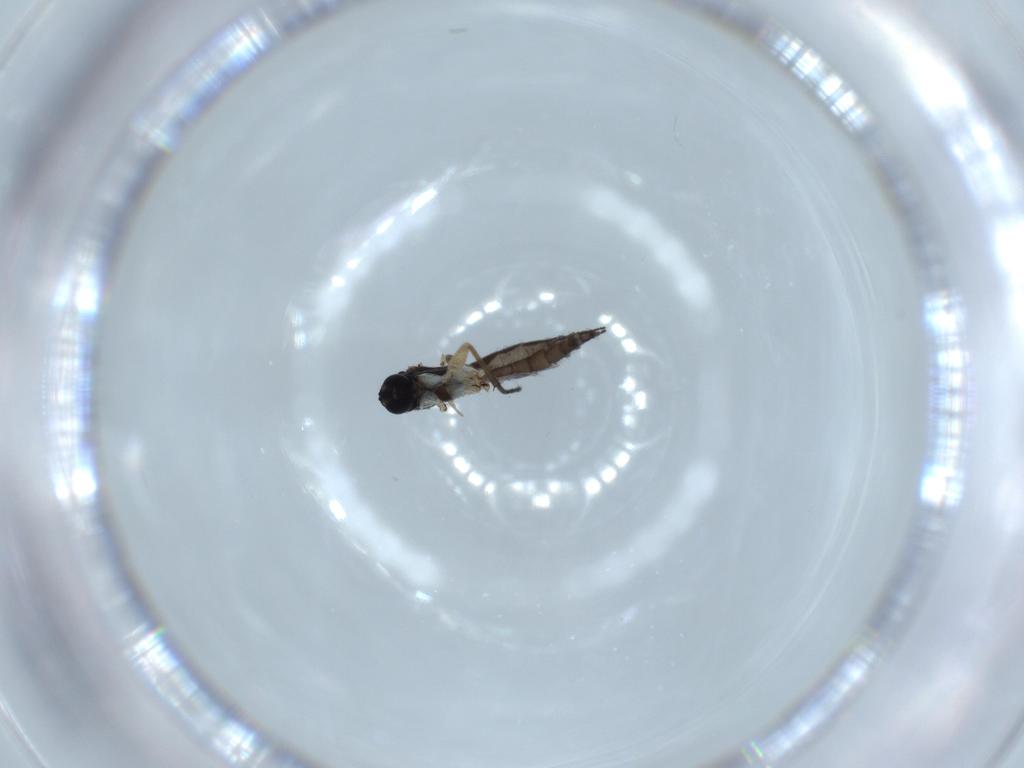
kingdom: Animalia
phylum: Arthropoda
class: Insecta
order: Diptera
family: Sciaridae
